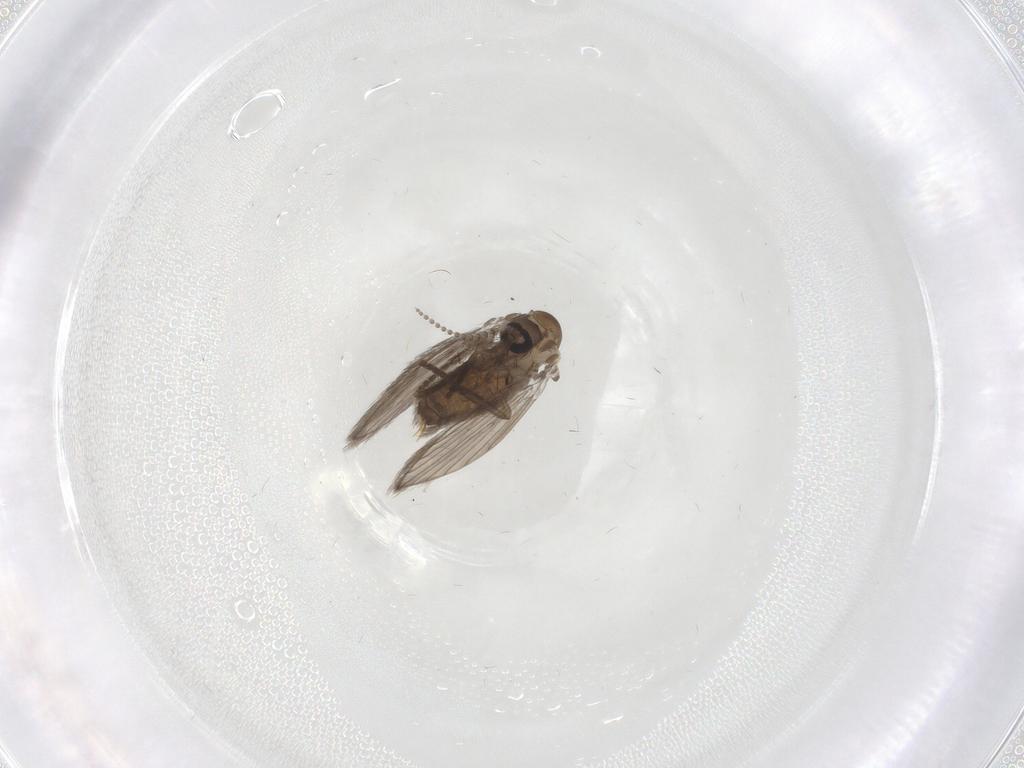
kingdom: Animalia
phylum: Arthropoda
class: Insecta
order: Diptera
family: Psychodidae
